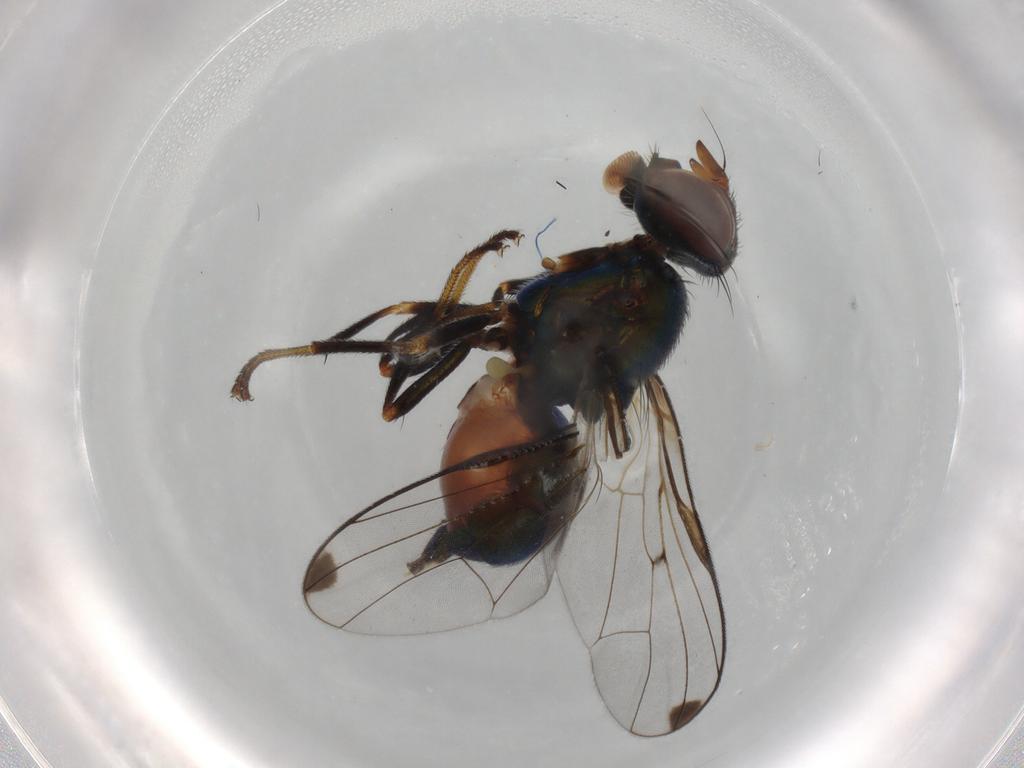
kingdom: Animalia
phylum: Arthropoda
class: Insecta
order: Diptera
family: Platystomatidae
